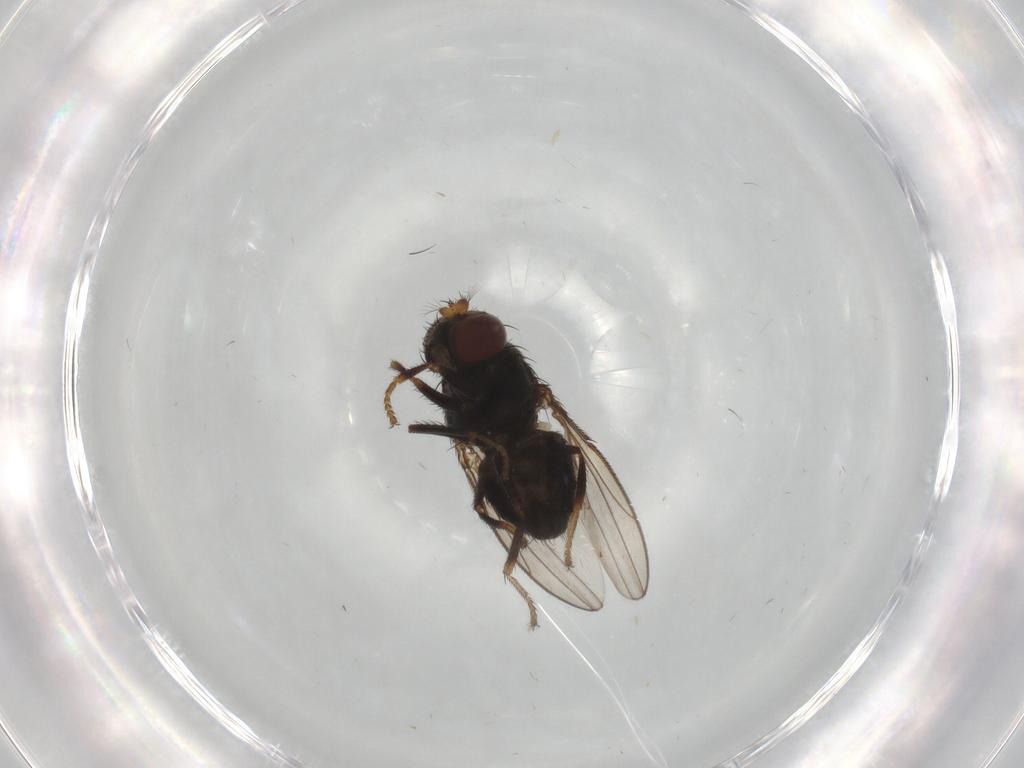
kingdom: Animalia
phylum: Arthropoda
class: Insecta
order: Diptera
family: Ephydridae
